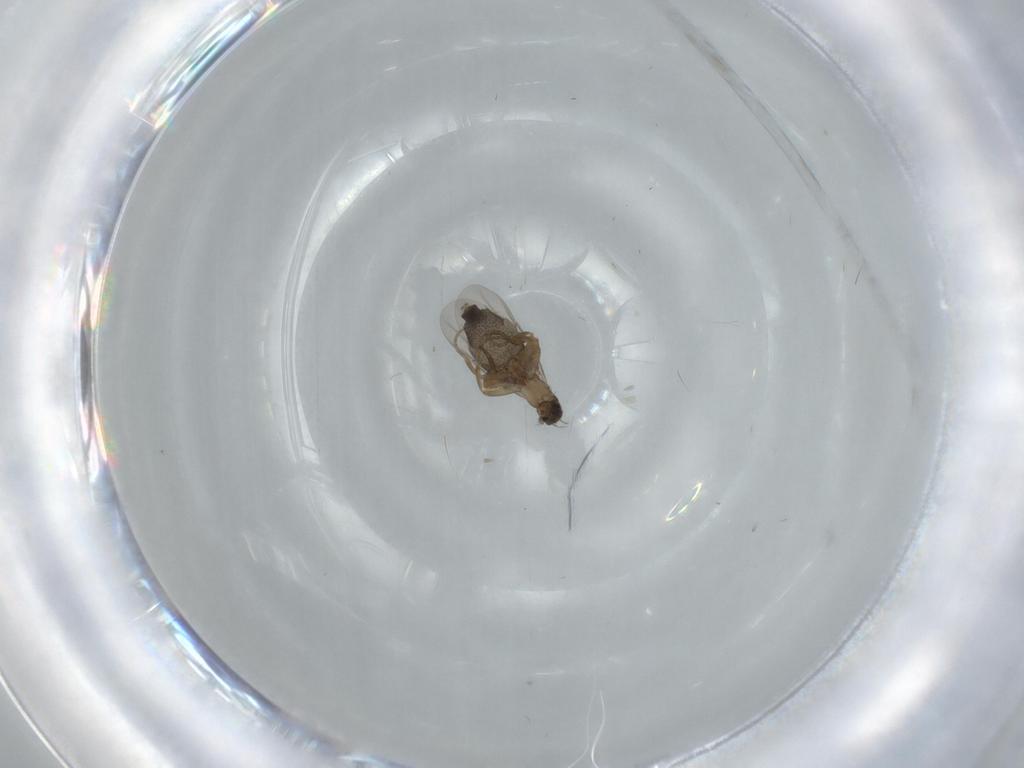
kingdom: Animalia
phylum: Arthropoda
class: Insecta
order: Diptera
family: Phoridae
